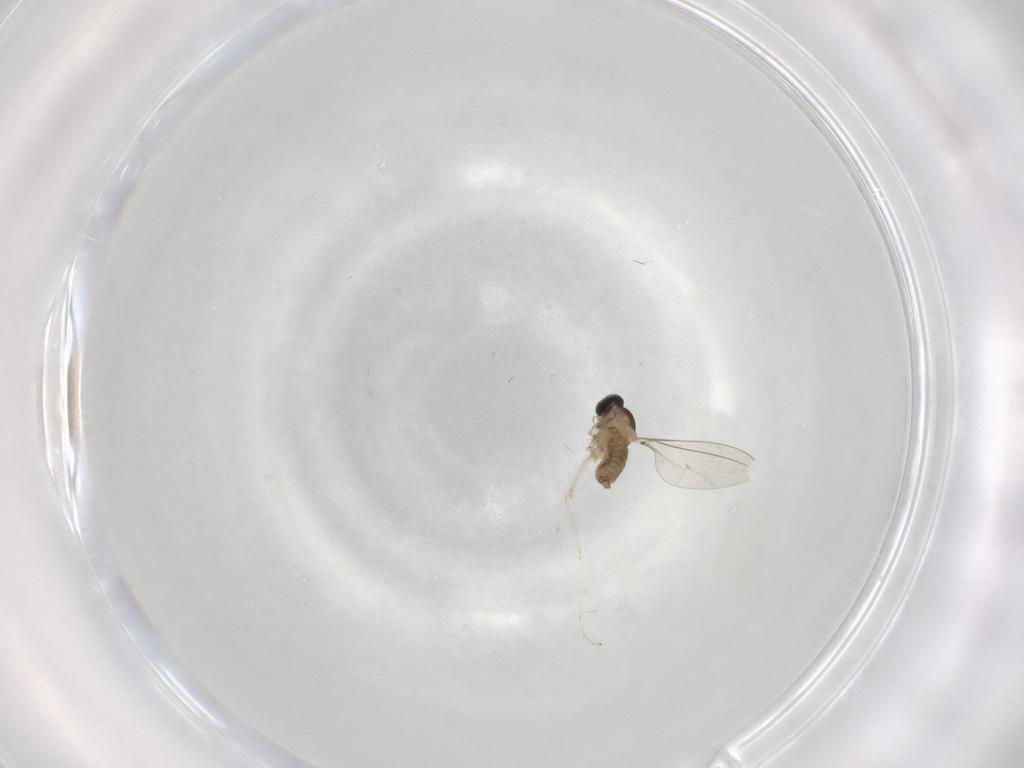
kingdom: Animalia
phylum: Arthropoda
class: Insecta
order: Diptera
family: Cecidomyiidae
